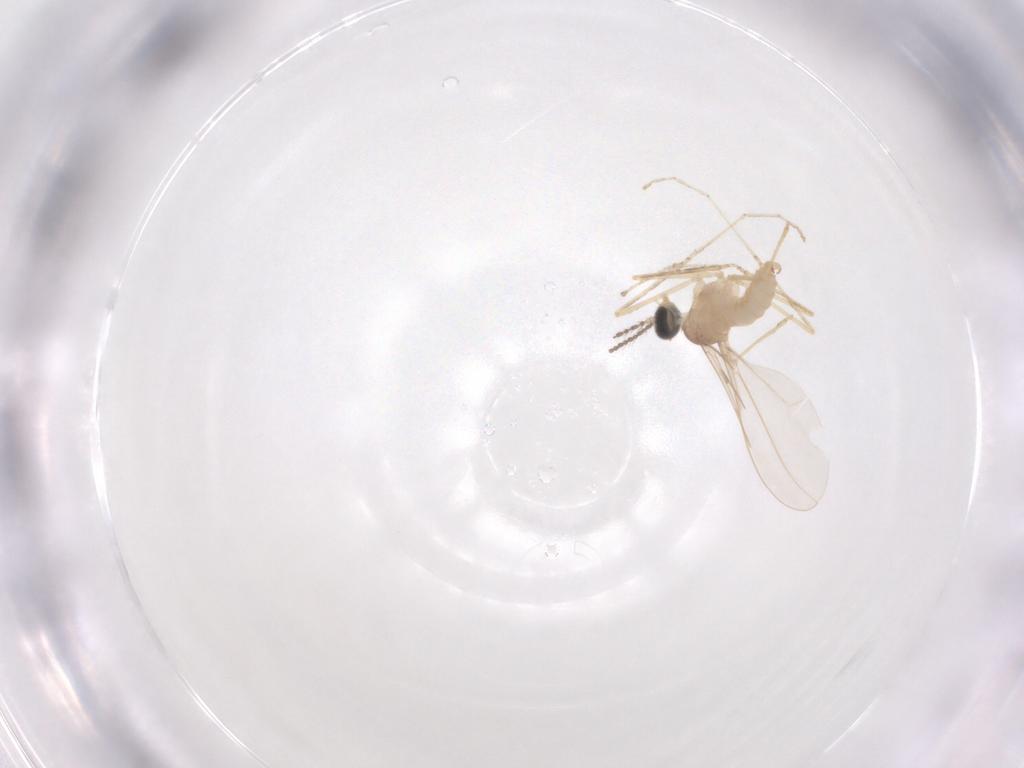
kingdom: Animalia
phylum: Arthropoda
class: Insecta
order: Diptera
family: Cecidomyiidae
